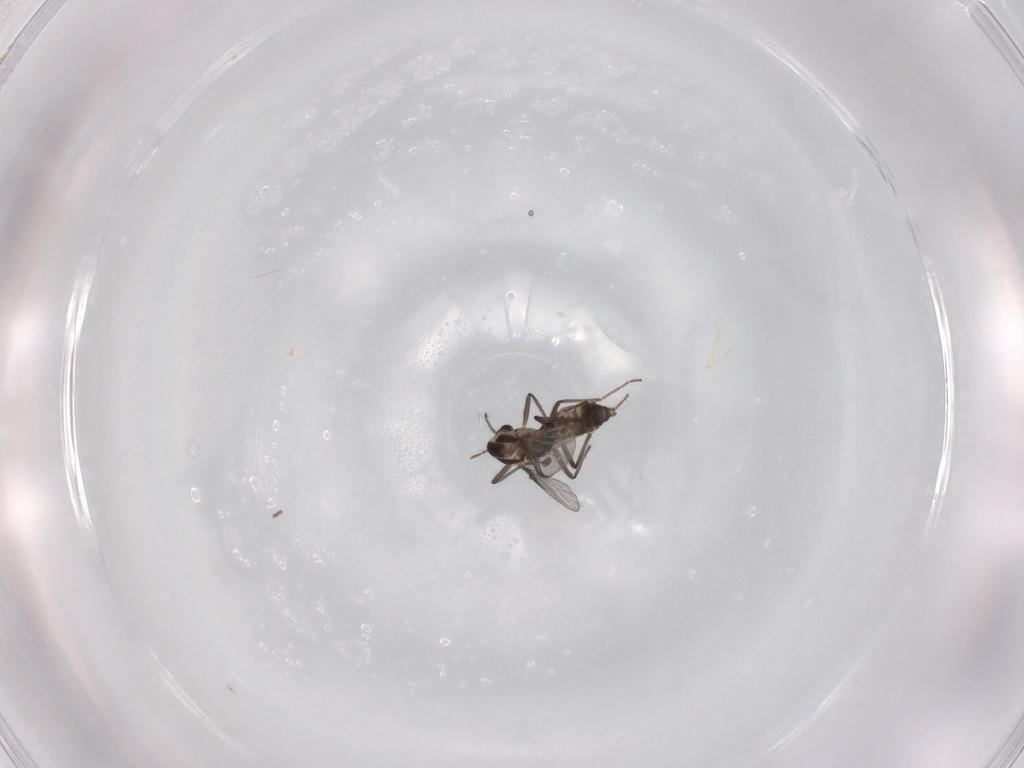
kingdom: Animalia
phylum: Arthropoda
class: Insecta
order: Diptera
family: Chironomidae
